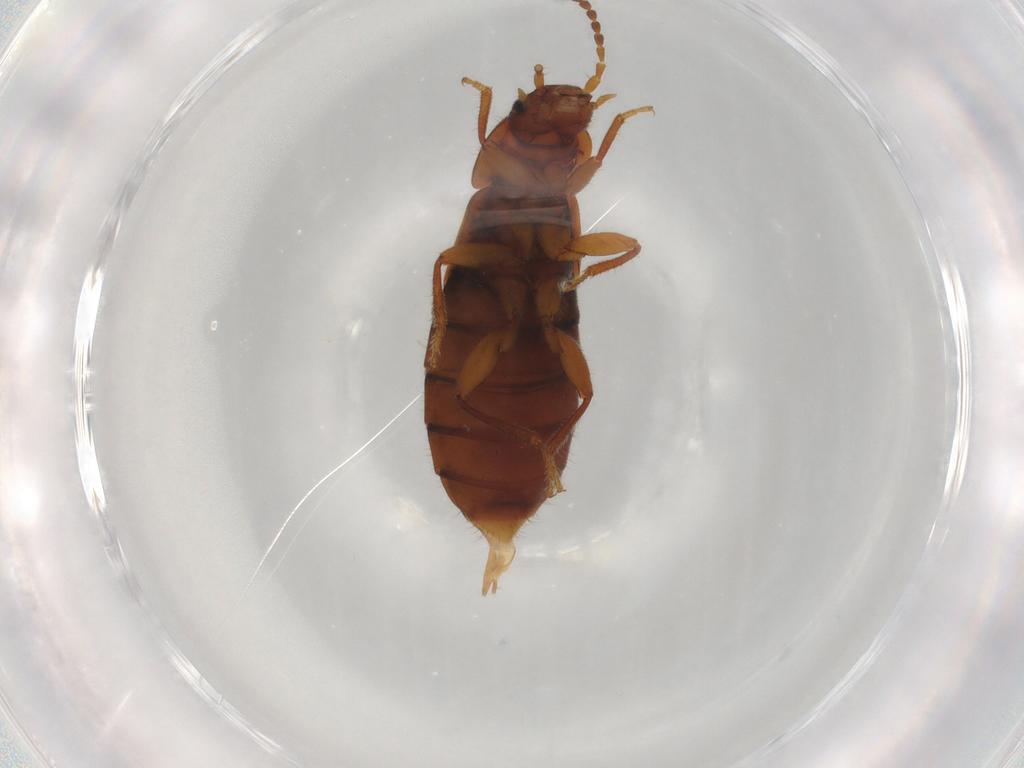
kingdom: Animalia
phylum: Arthropoda
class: Insecta
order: Coleoptera
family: Staphylinidae
